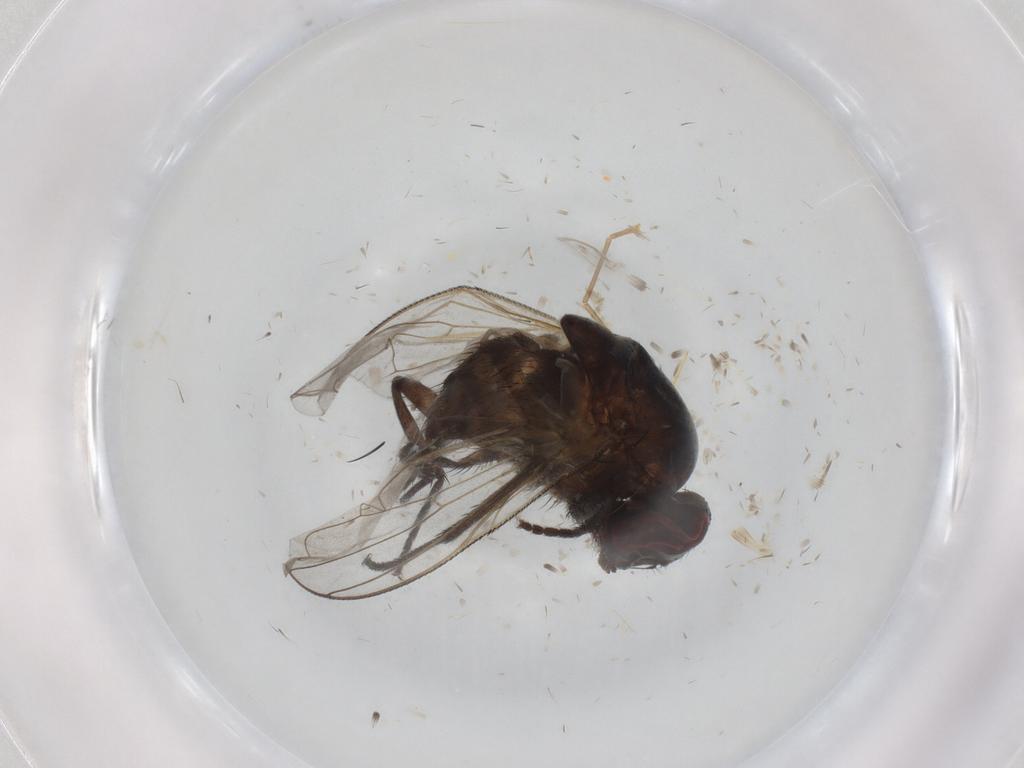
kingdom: Animalia
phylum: Arthropoda
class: Insecta
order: Diptera
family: Muscidae
